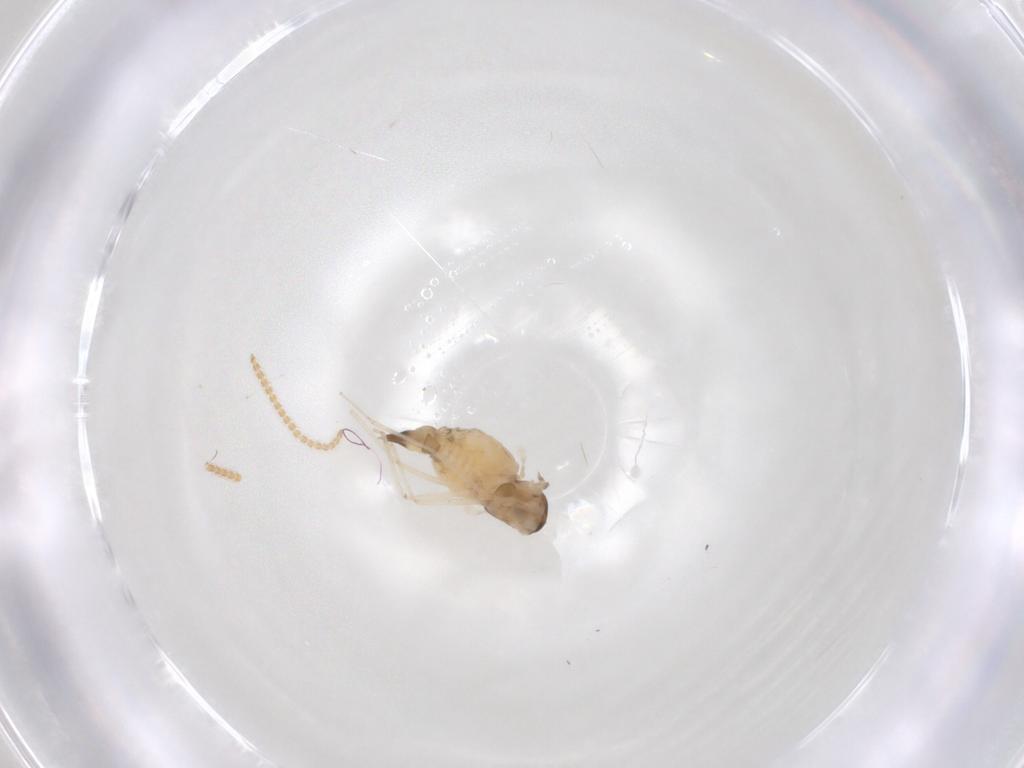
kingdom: Animalia
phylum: Arthropoda
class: Insecta
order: Diptera
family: Cecidomyiidae
